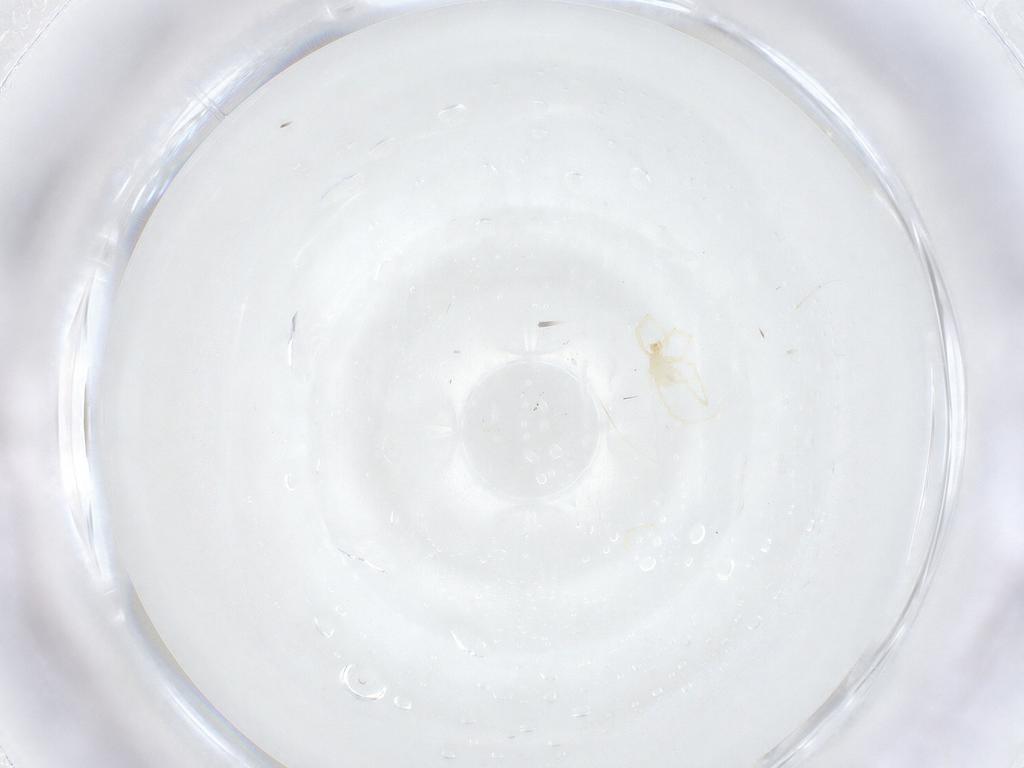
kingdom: Animalia
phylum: Arthropoda
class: Arachnida
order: Trombidiformes
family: Erythraeidae
